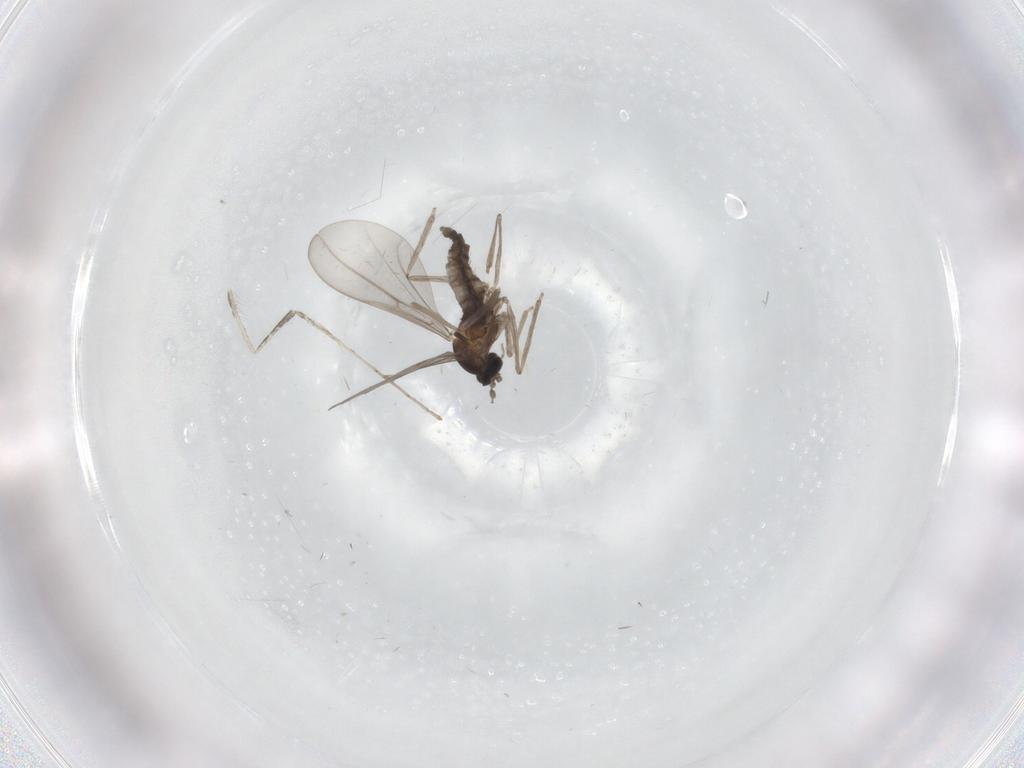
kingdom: Animalia
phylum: Arthropoda
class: Insecta
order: Diptera
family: Cecidomyiidae
